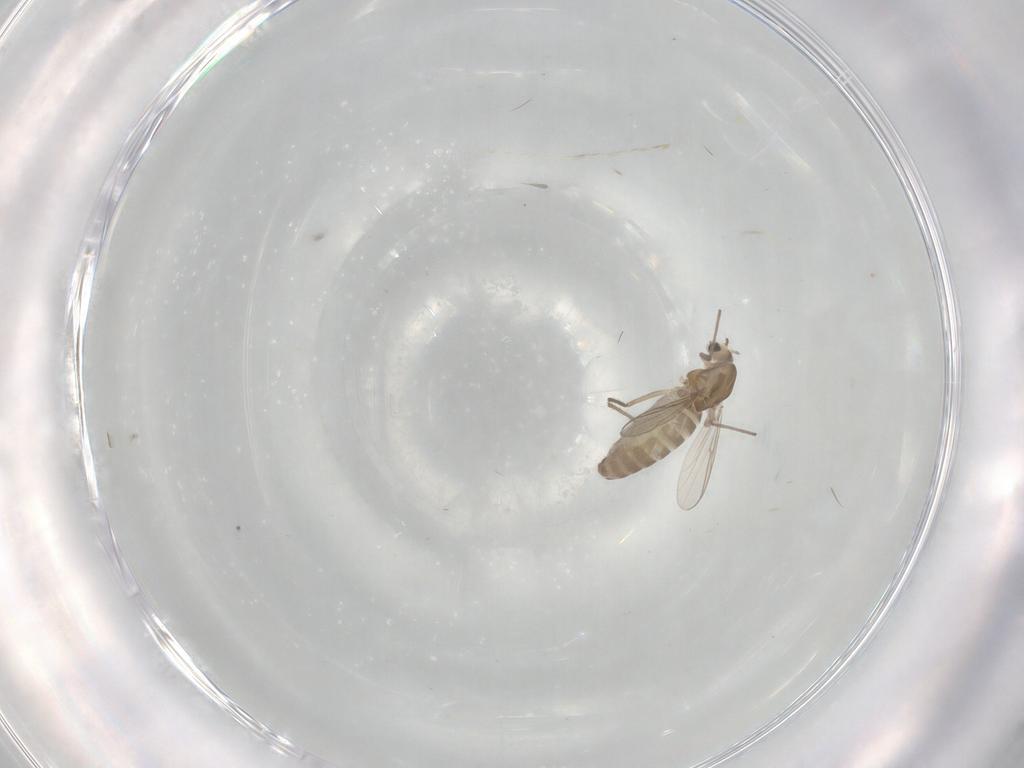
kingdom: Animalia
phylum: Arthropoda
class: Insecta
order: Diptera
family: Chironomidae
